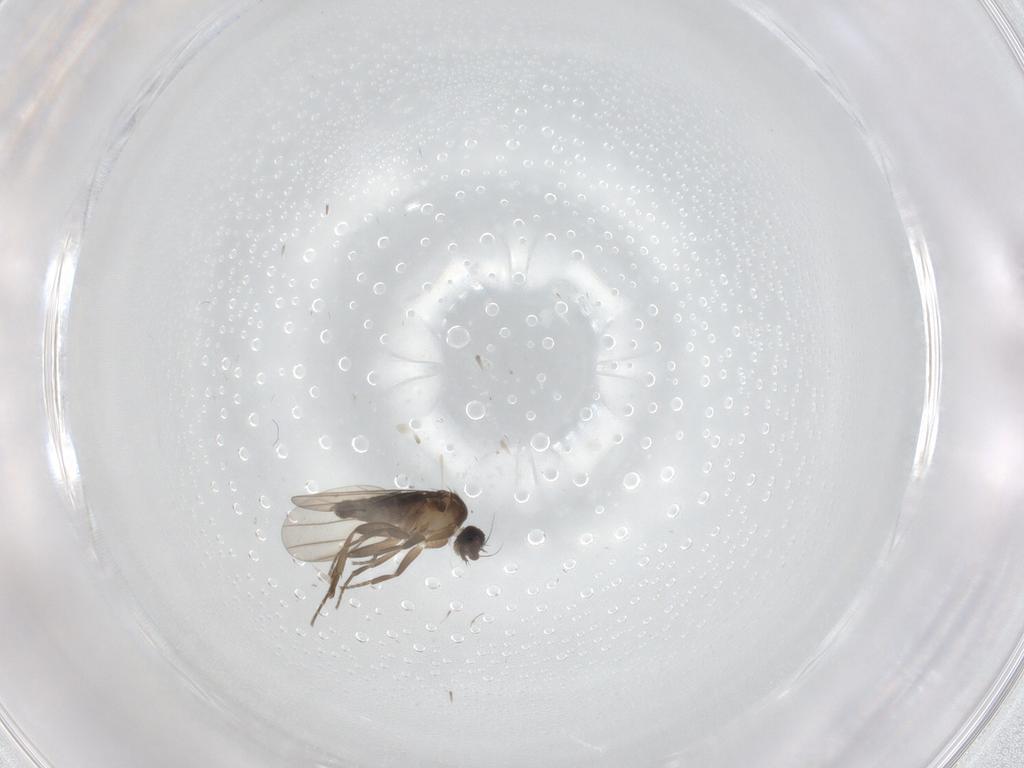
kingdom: Animalia
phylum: Arthropoda
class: Insecta
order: Diptera
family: Phoridae
